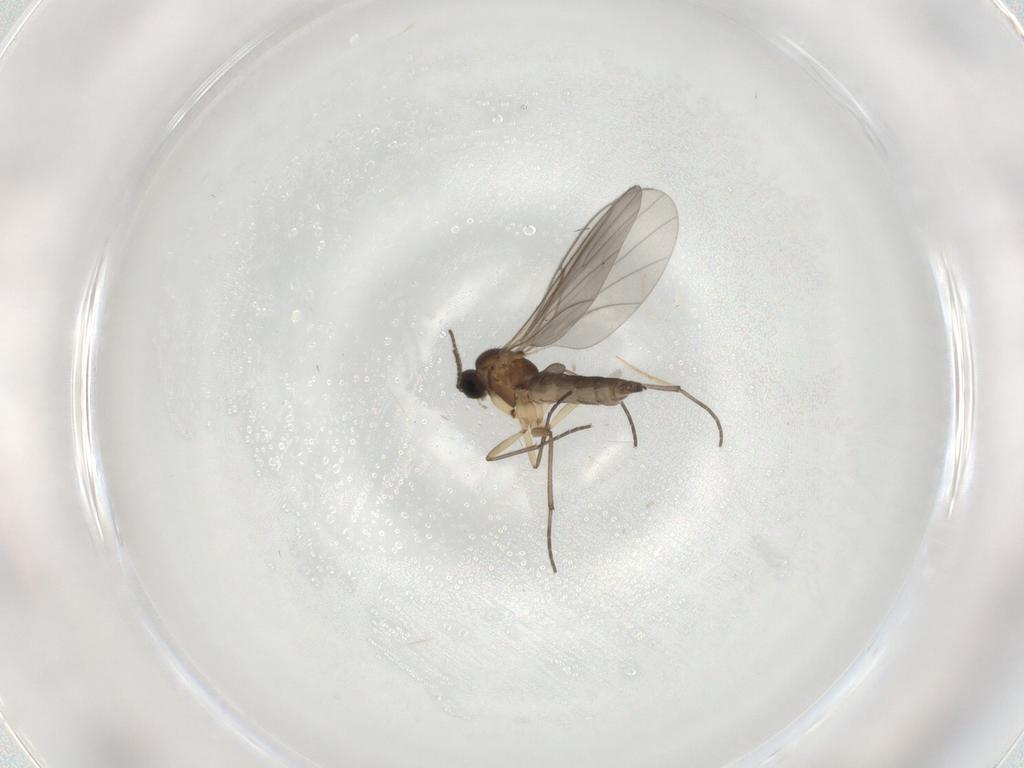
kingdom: Animalia
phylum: Arthropoda
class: Insecta
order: Diptera
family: Sciaridae
